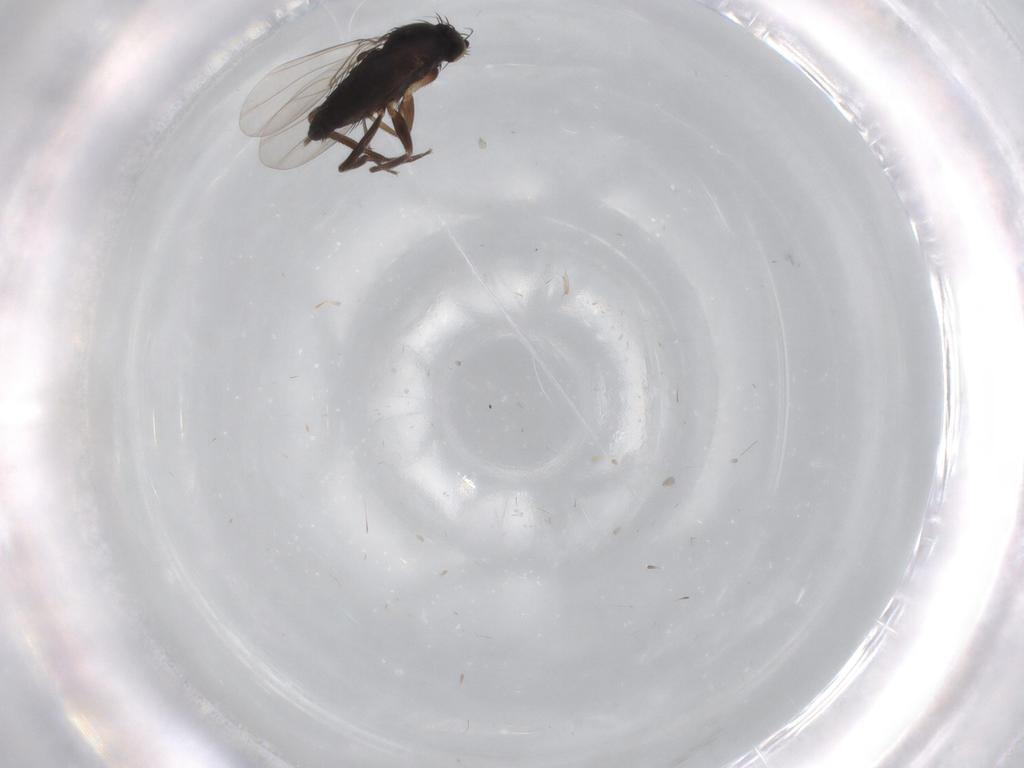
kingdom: Animalia
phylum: Arthropoda
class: Insecta
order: Diptera
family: Phoridae
